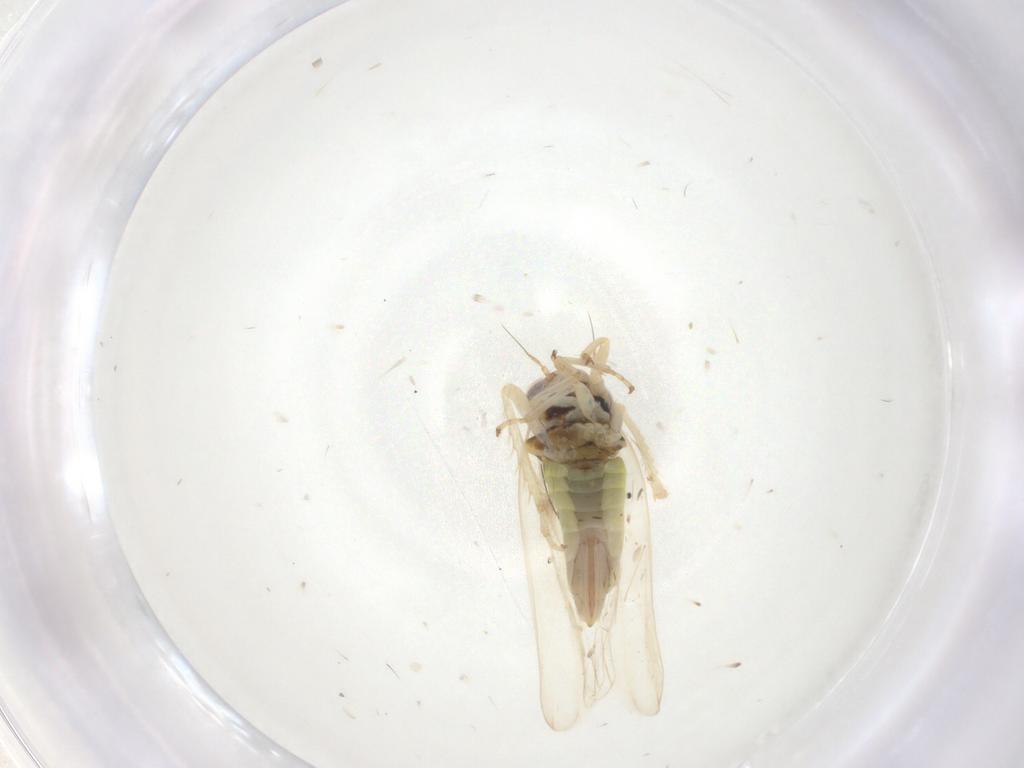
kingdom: Animalia
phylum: Arthropoda
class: Insecta
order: Hemiptera
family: Cicadellidae
